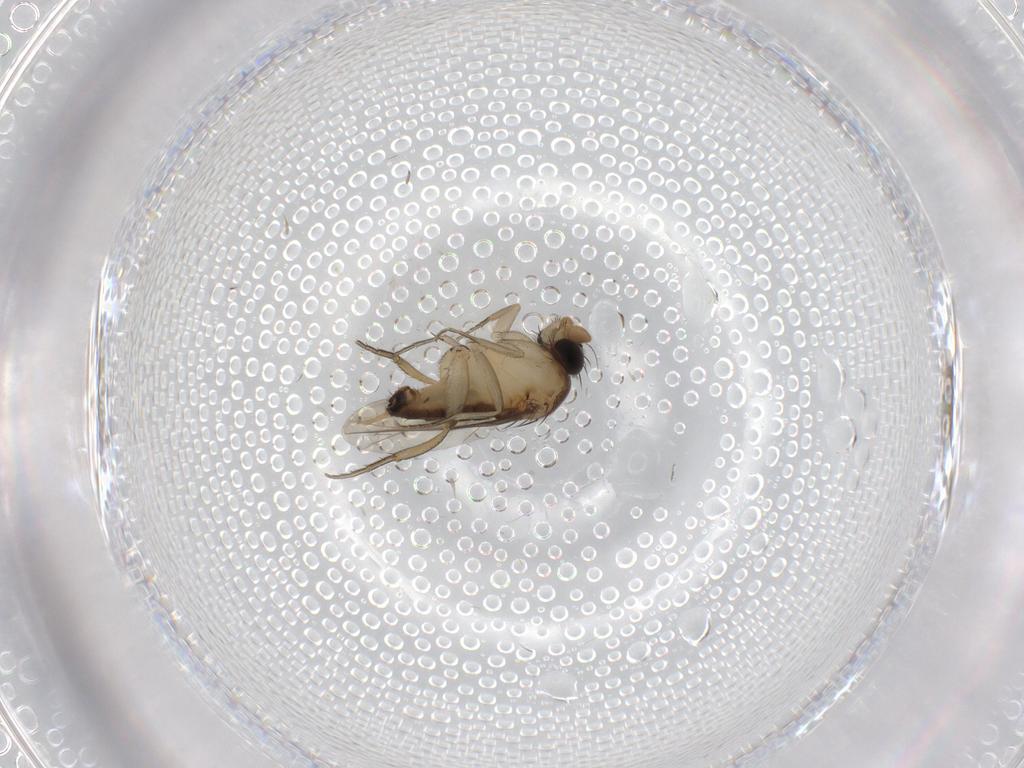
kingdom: Animalia
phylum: Arthropoda
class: Insecta
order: Diptera
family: Phoridae
